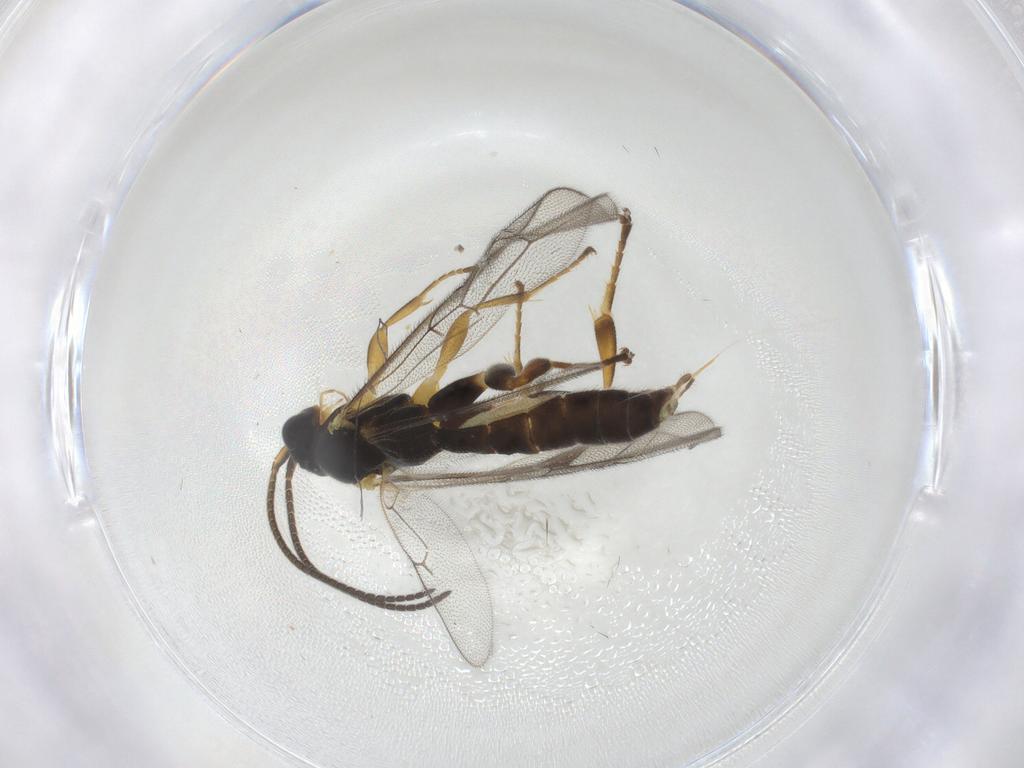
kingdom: Animalia
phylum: Arthropoda
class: Insecta
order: Hymenoptera
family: Ichneumonidae
